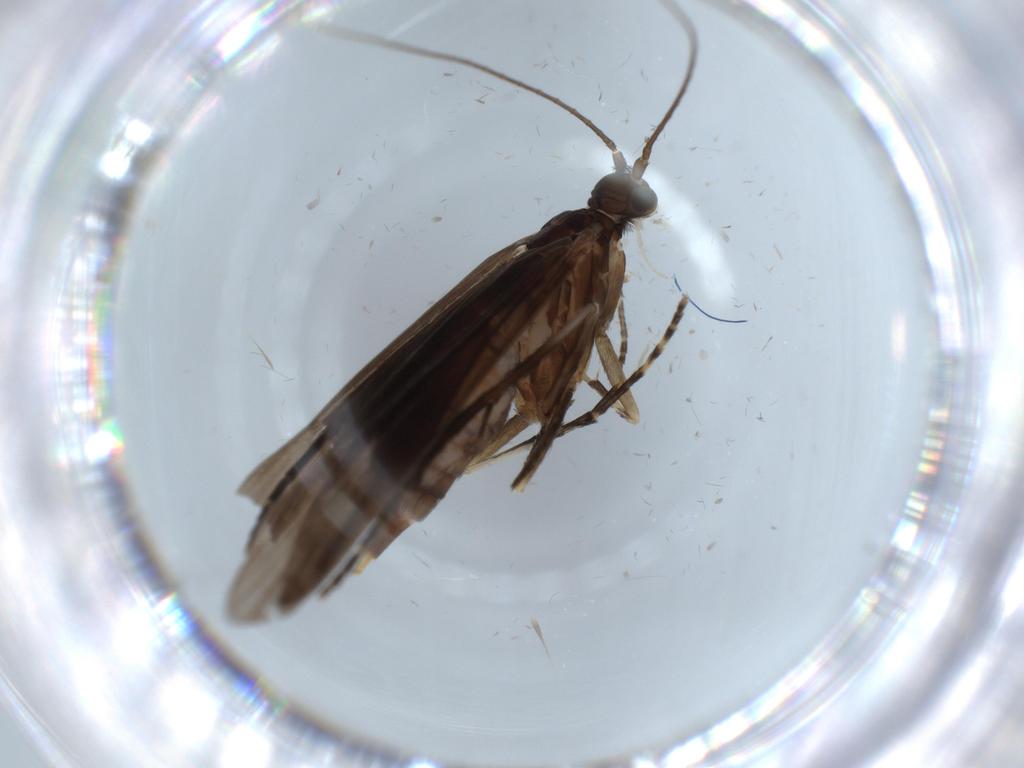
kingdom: Animalia
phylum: Arthropoda
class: Insecta
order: Trichoptera
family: Xiphocentronidae
